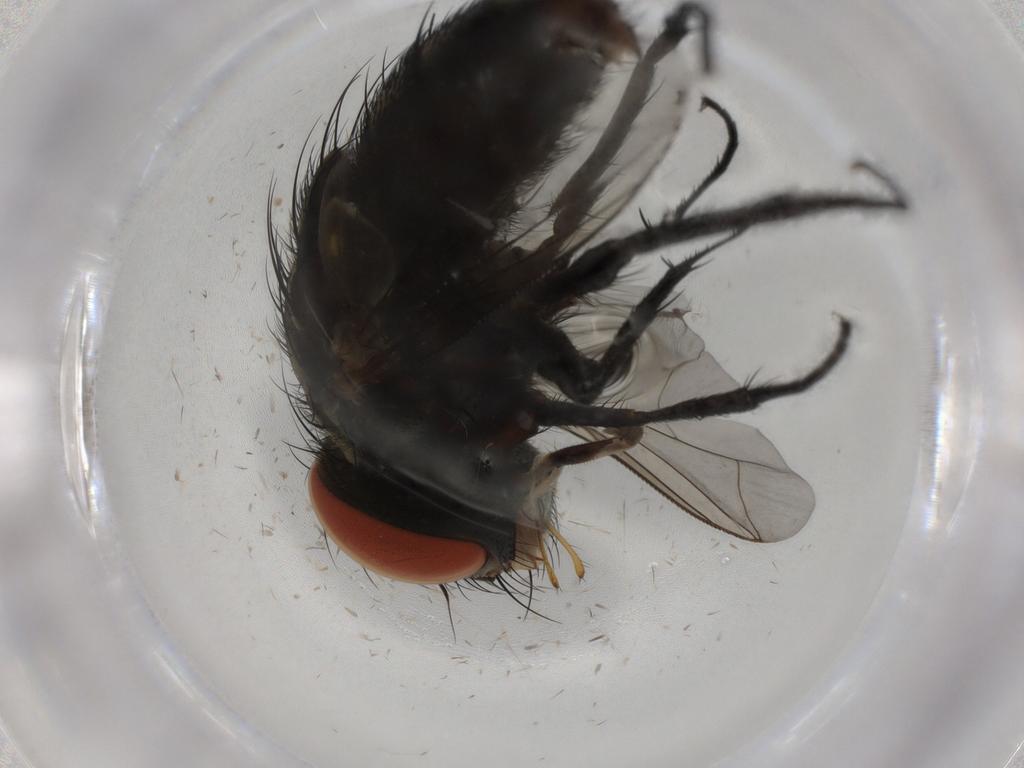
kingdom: Animalia
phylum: Arthropoda
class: Insecta
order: Diptera
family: Sarcophagidae
